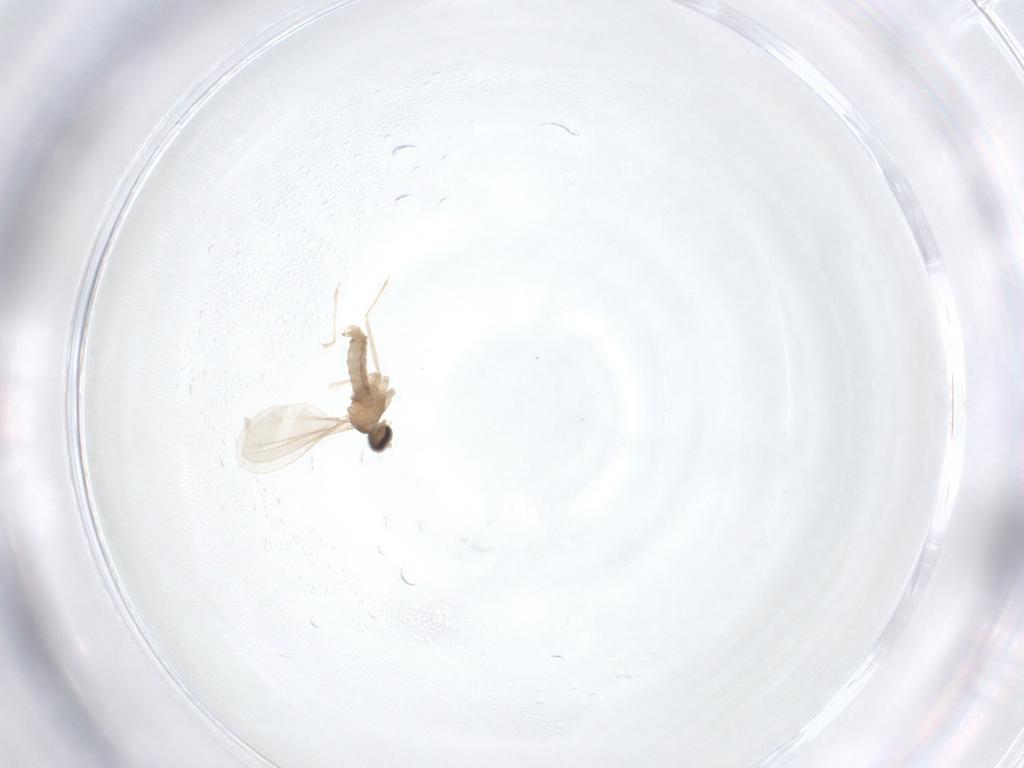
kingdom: Animalia
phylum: Arthropoda
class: Insecta
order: Diptera
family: Cecidomyiidae
